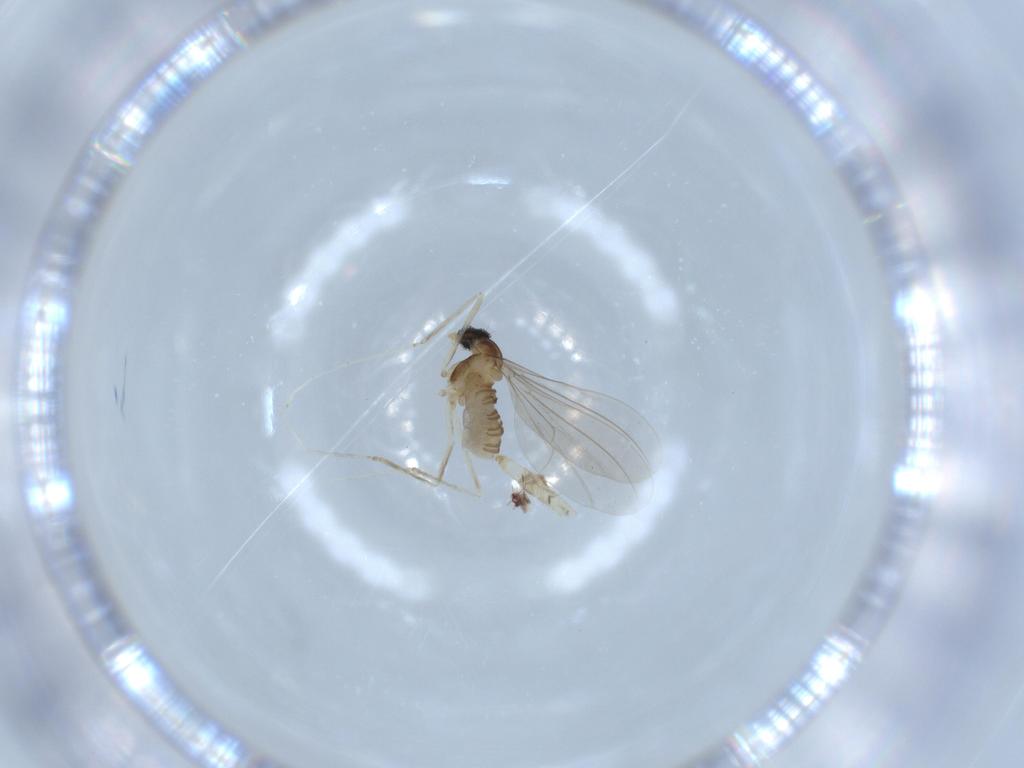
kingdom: Animalia
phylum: Arthropoda
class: Insecta
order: Diptera
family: Cecidomyiidae
